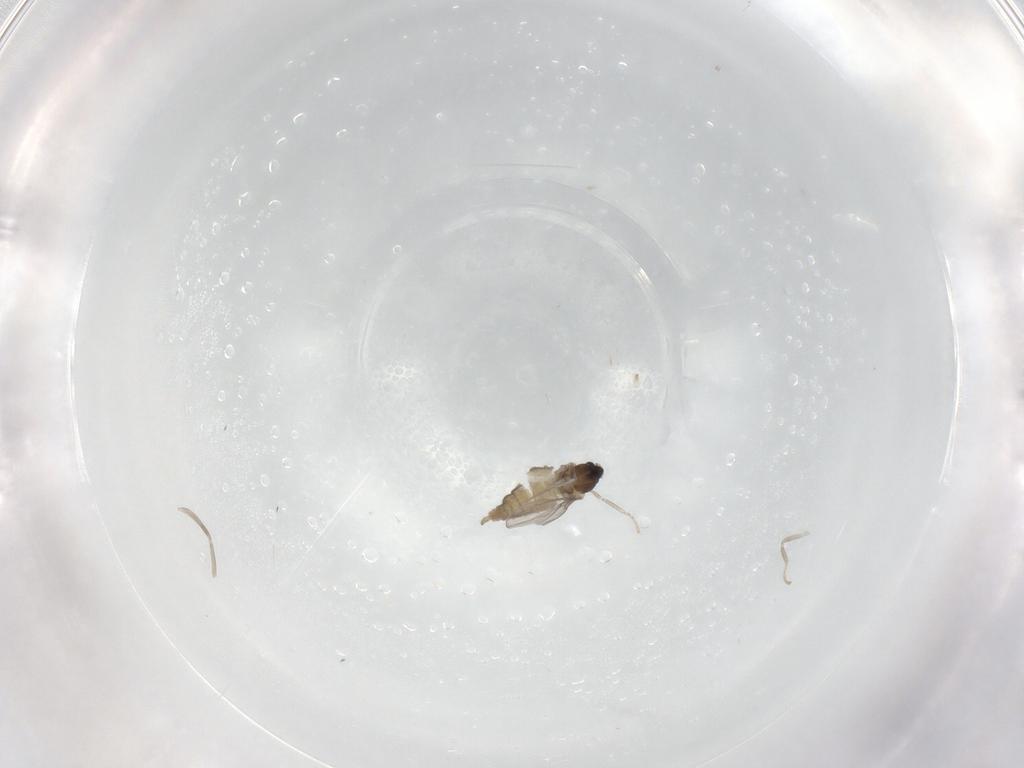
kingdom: Animalia
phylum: Arthropoda
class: Insecta
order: Diptera
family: Cecidomyiidae
